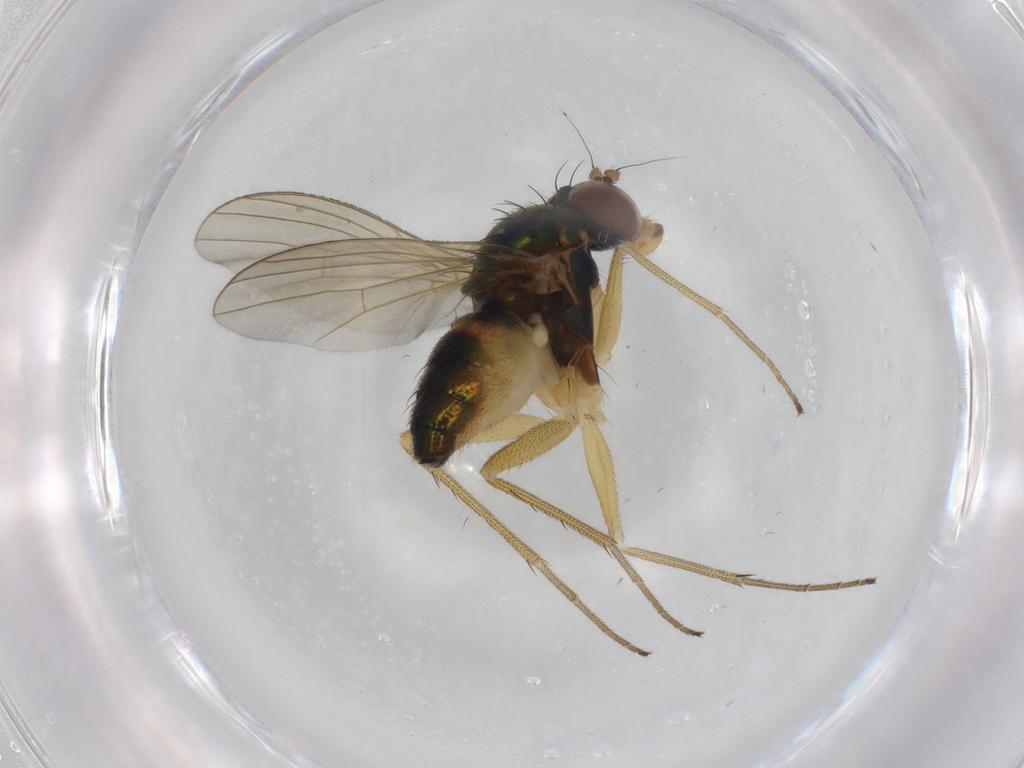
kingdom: Animalia
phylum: Arthropoda
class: Insecta
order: Diptera
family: Dolichopodidae
